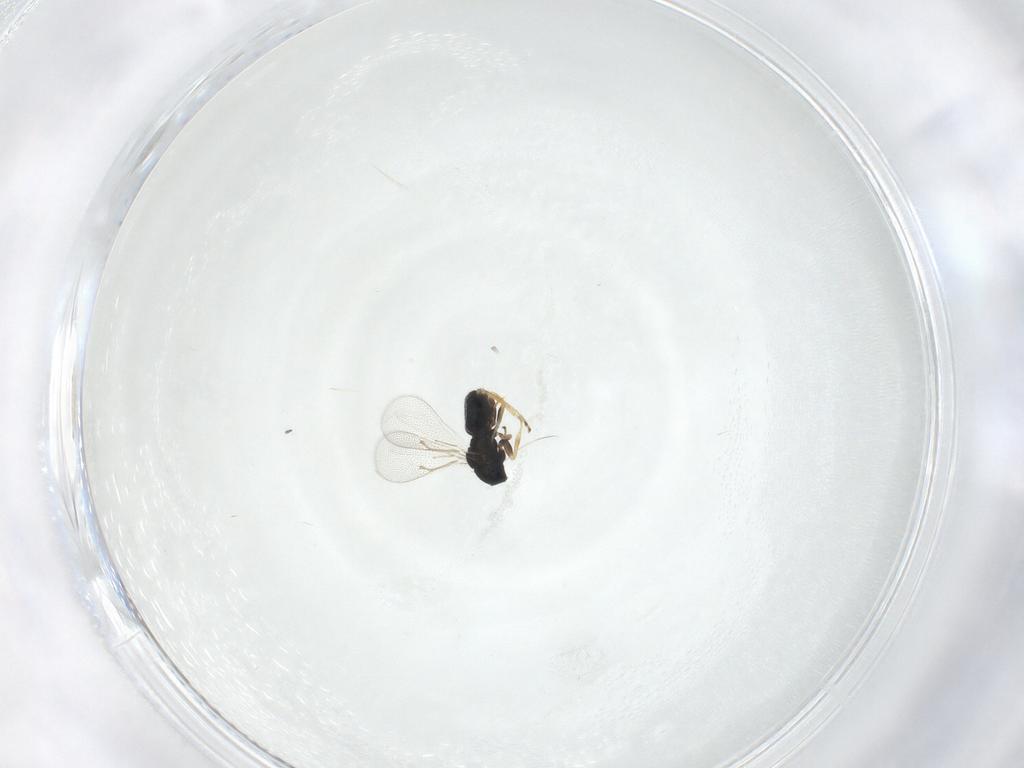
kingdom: Animalia
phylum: Arthropoda
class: Insecta
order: Hymenoptera
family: Eulophidae
